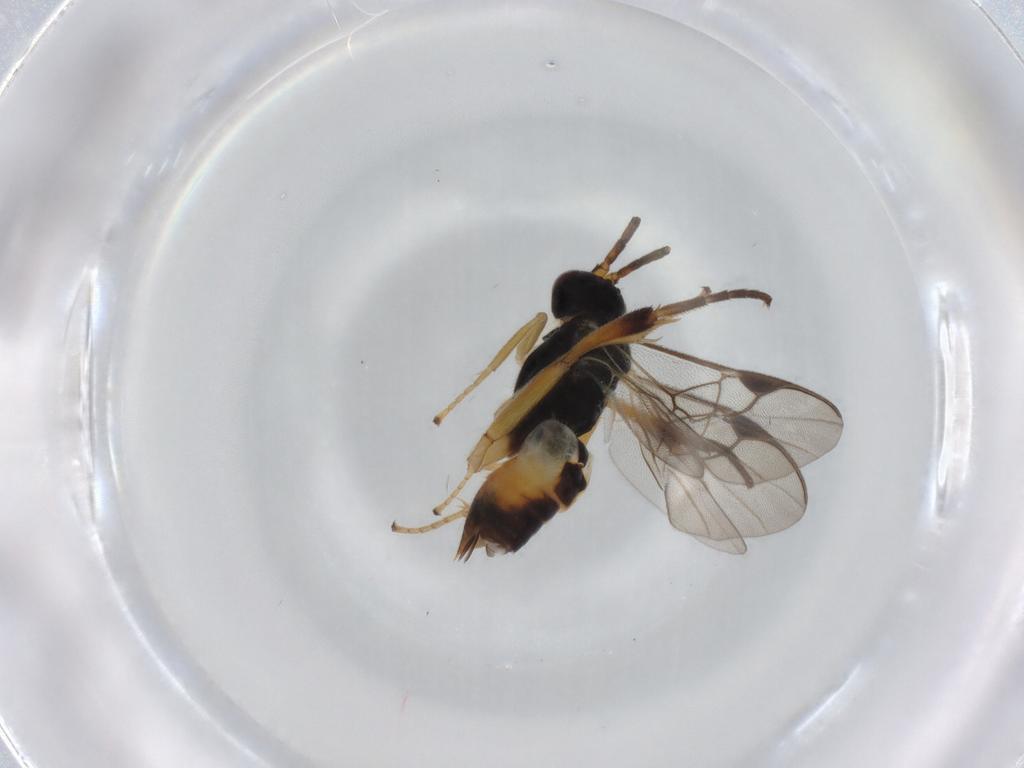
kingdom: Animalia
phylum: Arthropoda
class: Insecta
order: Hymenoptera
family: Braconidae
